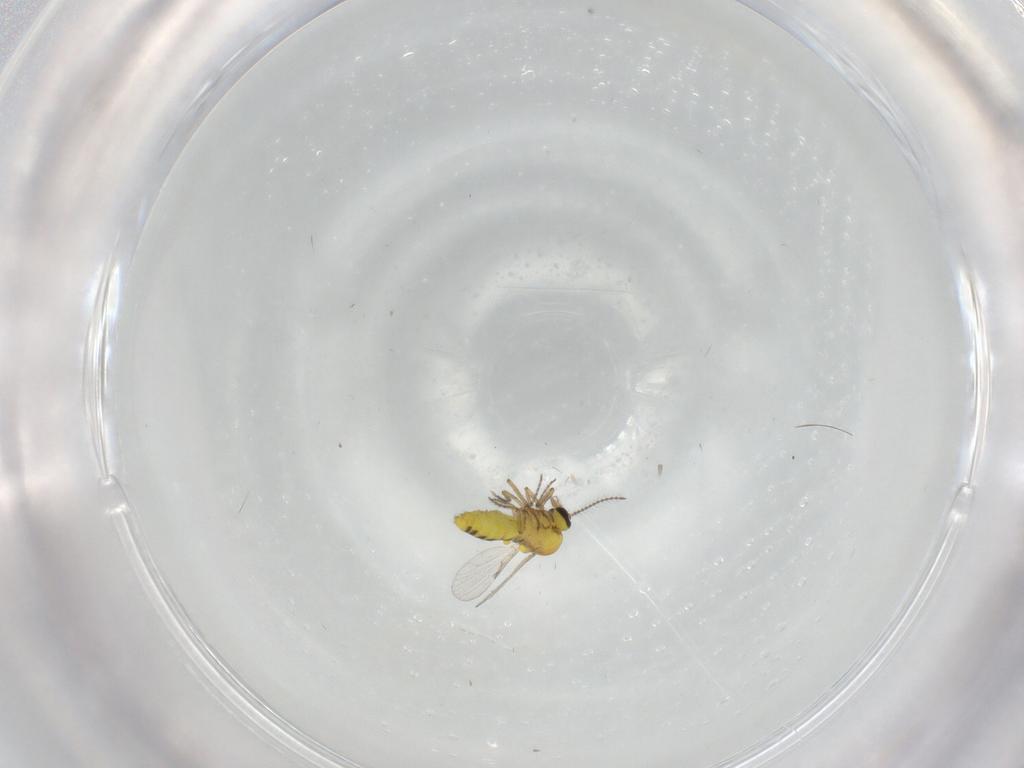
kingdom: Animalia
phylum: Arthropoda
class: Insecta
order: Diptera
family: Ceratopogonidae
